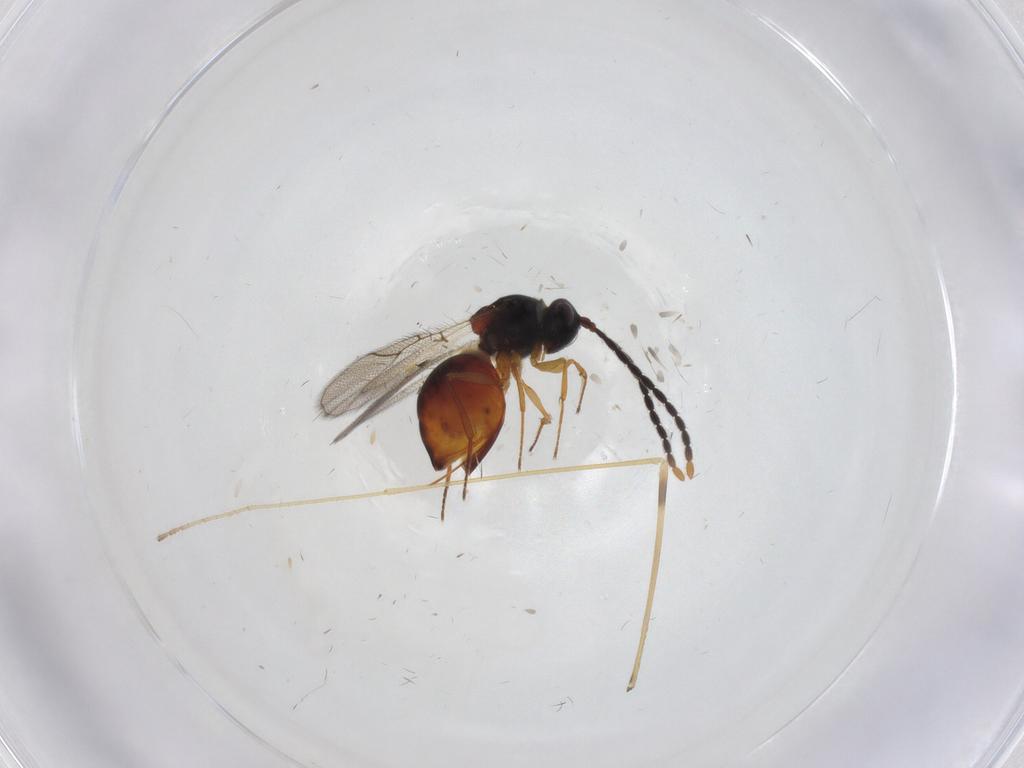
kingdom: Animalia
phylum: Arthropoda
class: Insecta
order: Hymenoptera
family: Figitidae
